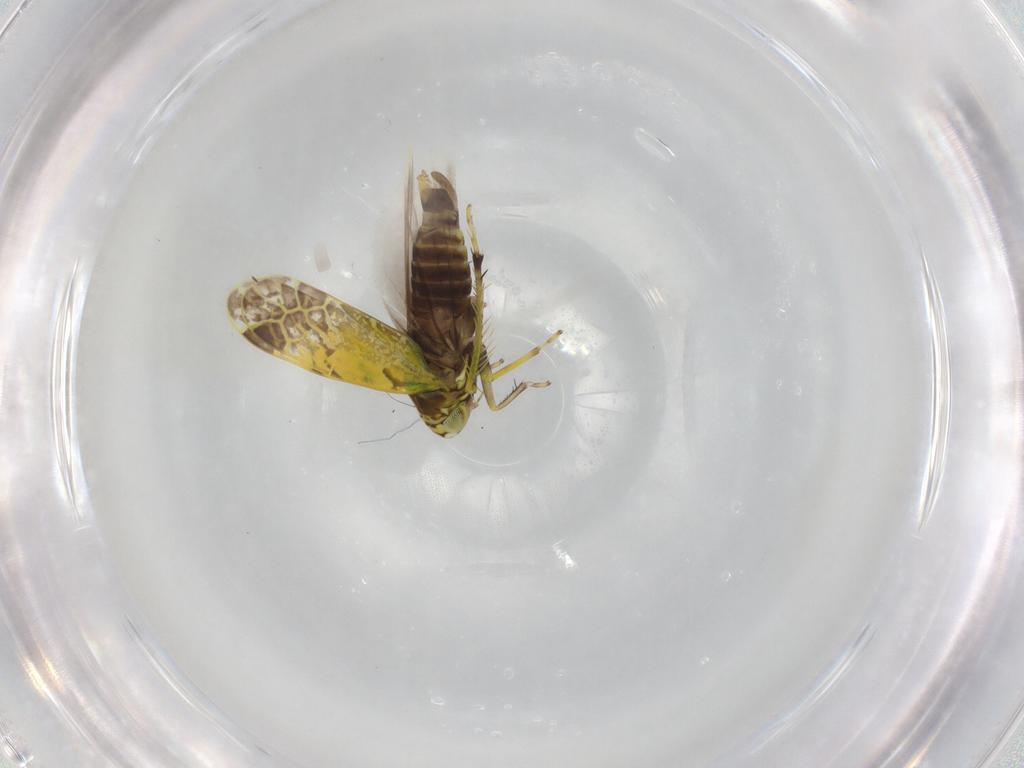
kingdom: Animalia
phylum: Arthropoda
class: Insecta
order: Hemiptera
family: Cicadellidae
